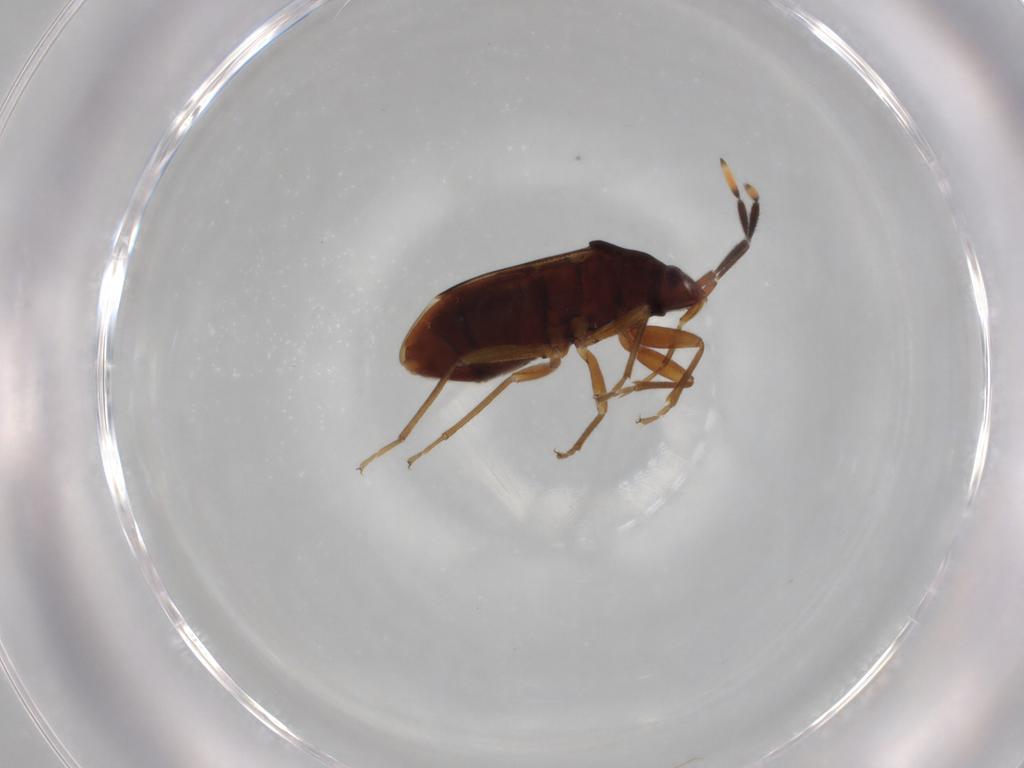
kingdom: Animalia
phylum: Arthropoda
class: Insecta
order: Hemiptera
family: Rhyparochromidae
